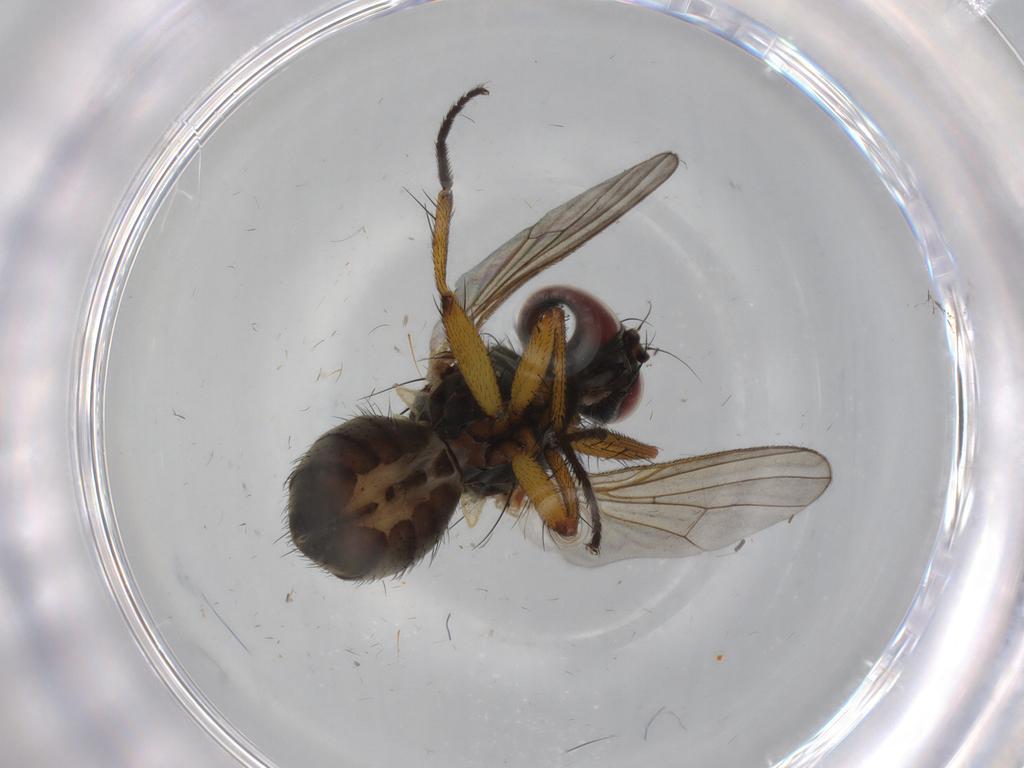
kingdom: Animalia
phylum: Arthropoda
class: Insecta
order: Diptera
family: Muscidae
